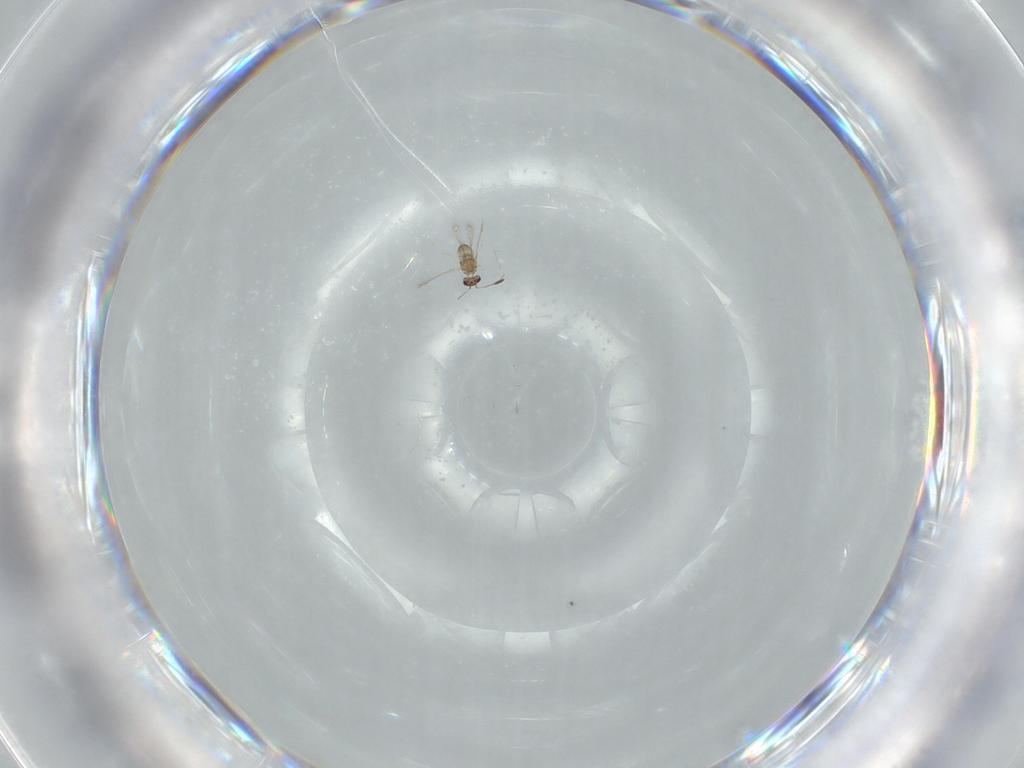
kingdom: Animalia
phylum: Arthropoda
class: Insecta
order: Hymenoptera
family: Mymaridae
